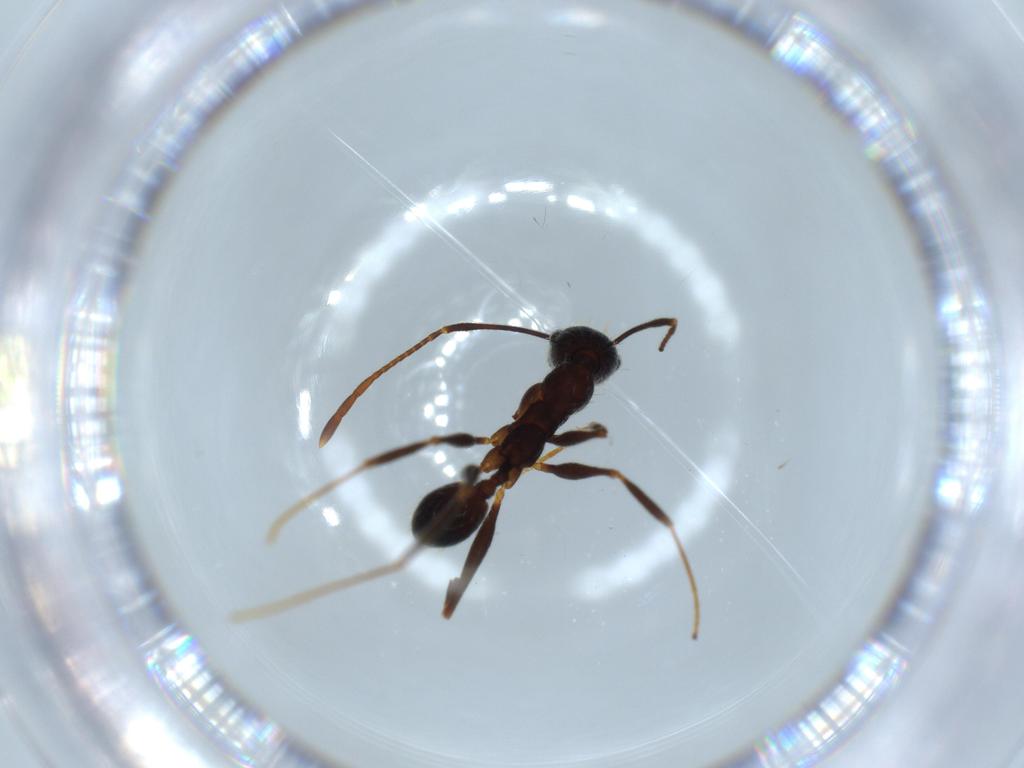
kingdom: Animalia
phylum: Arthropoda
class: Insecta
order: Hymenoptera
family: Formicidae
